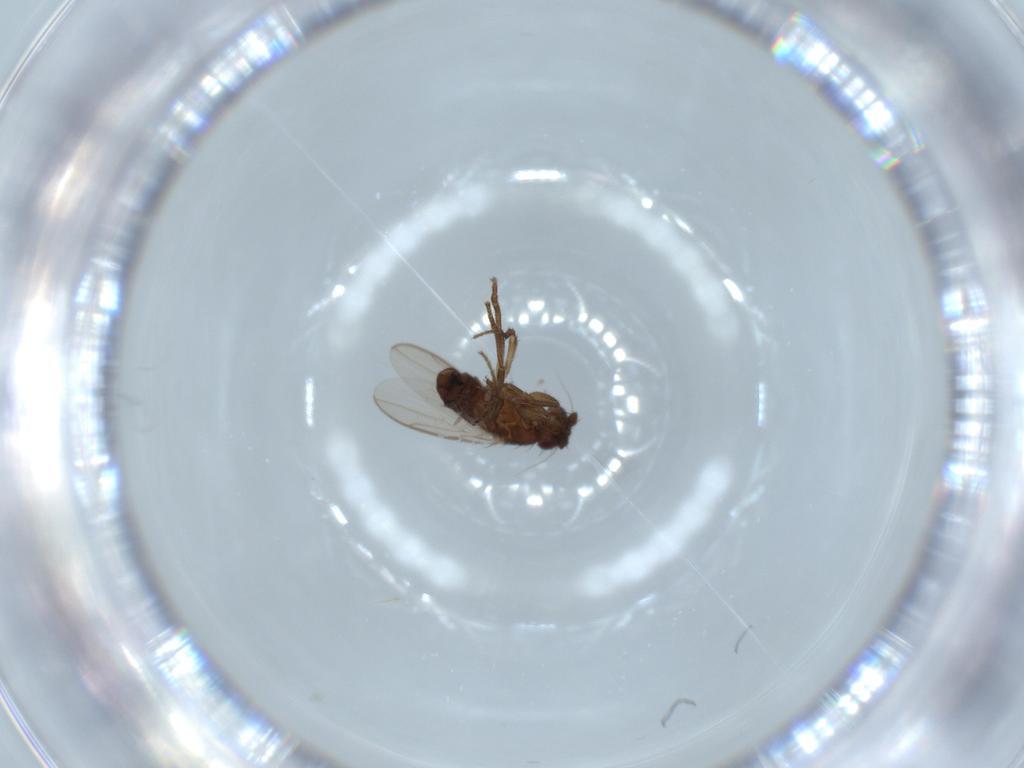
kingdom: Animalia
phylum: Arthropoda
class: Insecta
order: Diptera
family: Sphaeroceridae
